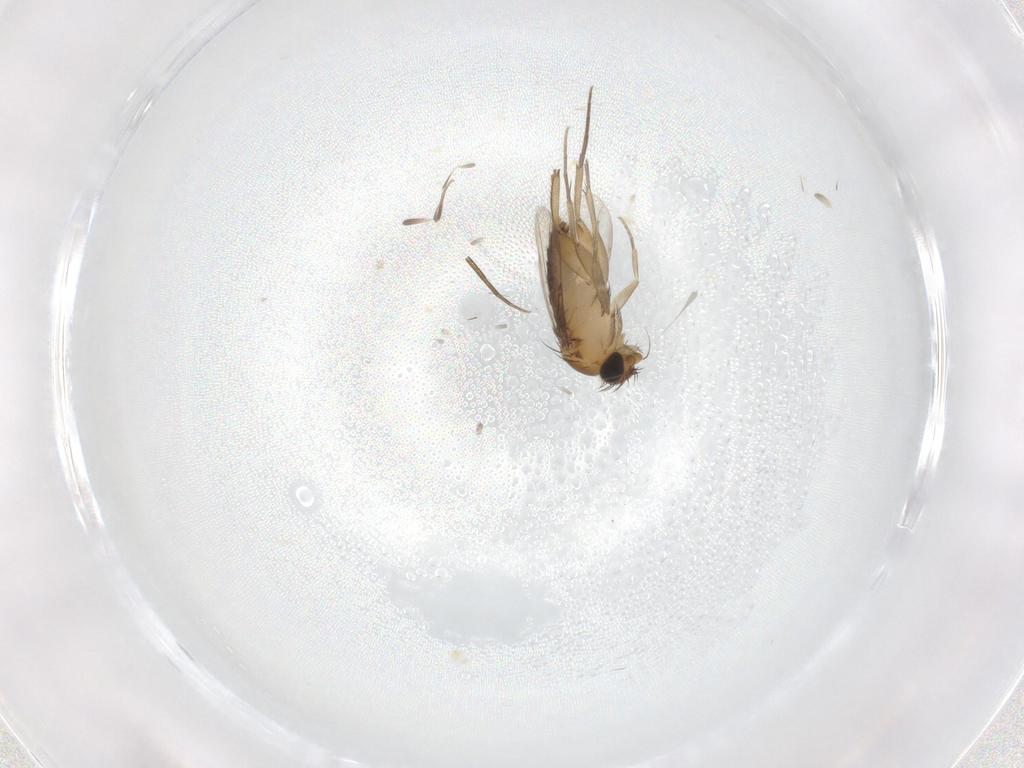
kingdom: Animalia
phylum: Arthropoda
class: Insecta
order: Diptera
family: Phoridae
